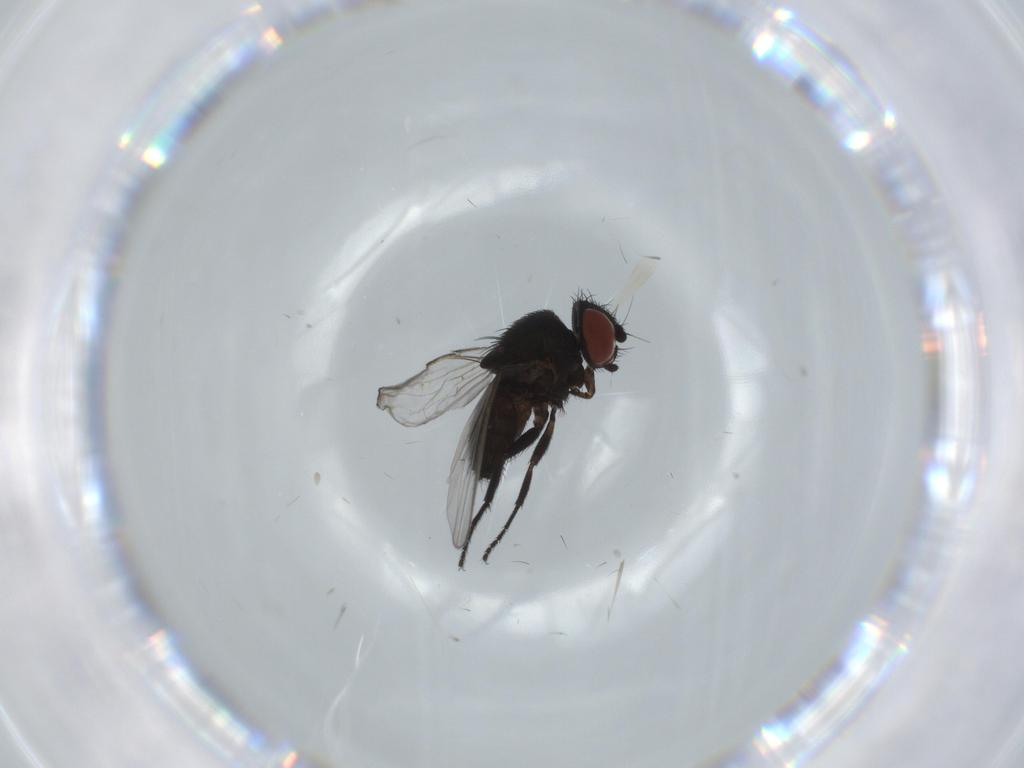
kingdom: Animalia
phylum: Arthropoda
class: Insecta
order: Diptera
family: Milichiidae
